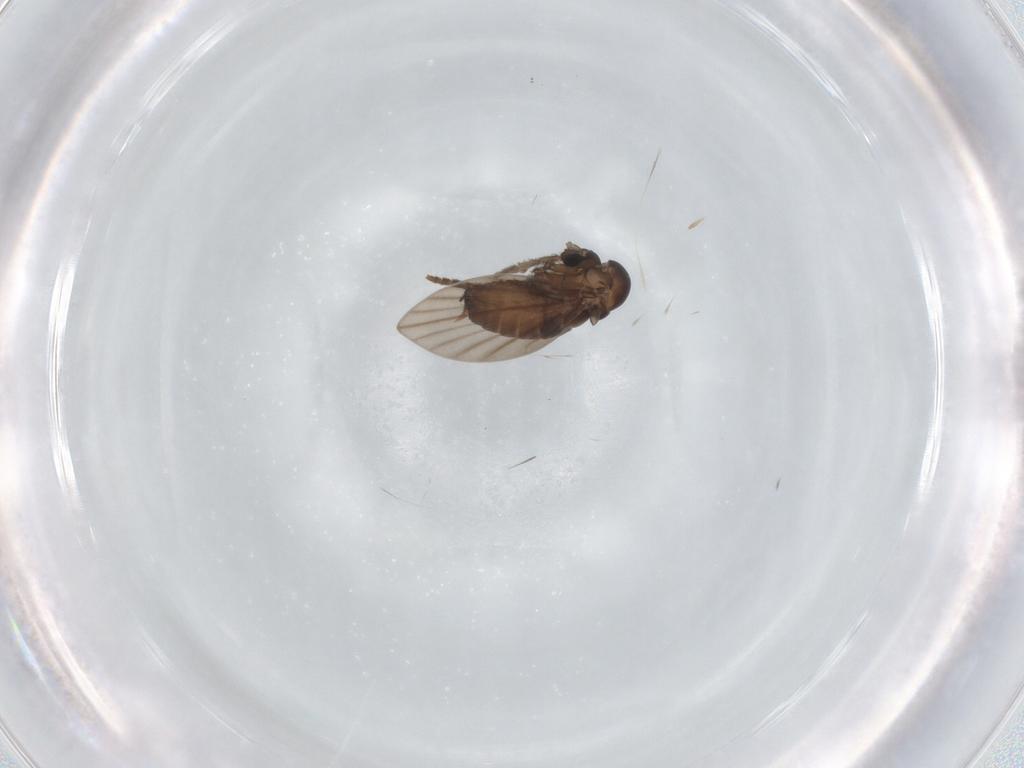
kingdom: Animalia
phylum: Arthropoda
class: Insecta
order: Diptera
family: Psychodidae
